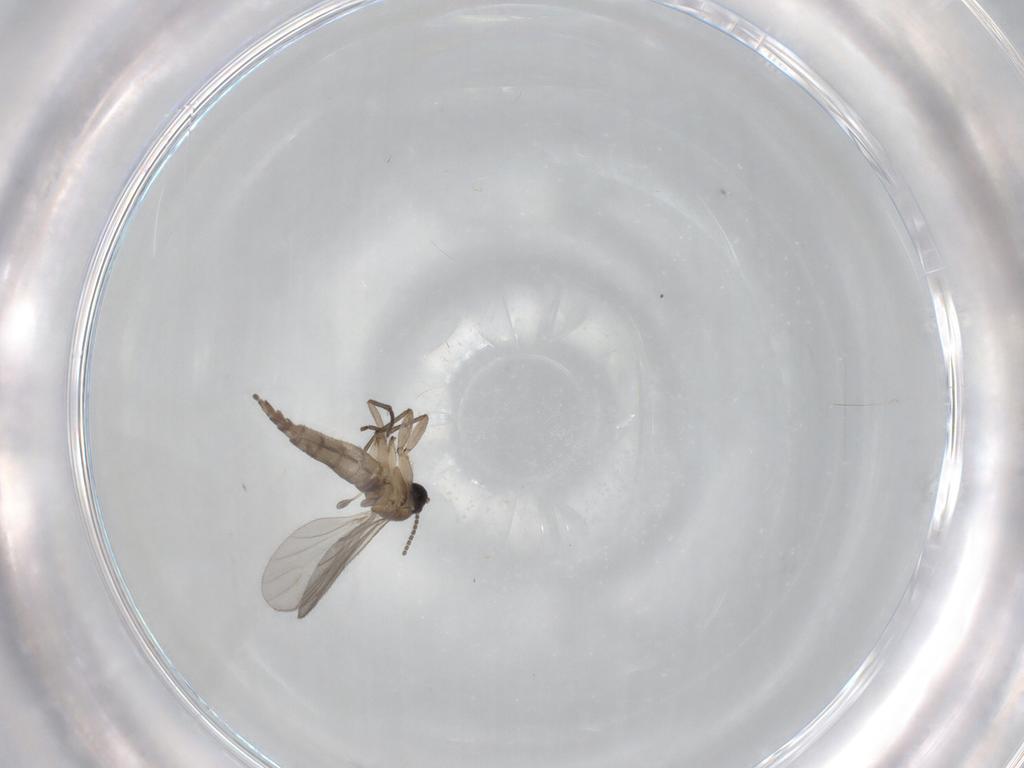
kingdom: Animalia
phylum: Arthropoda
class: Insecta
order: Diptera
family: Sciaridae
